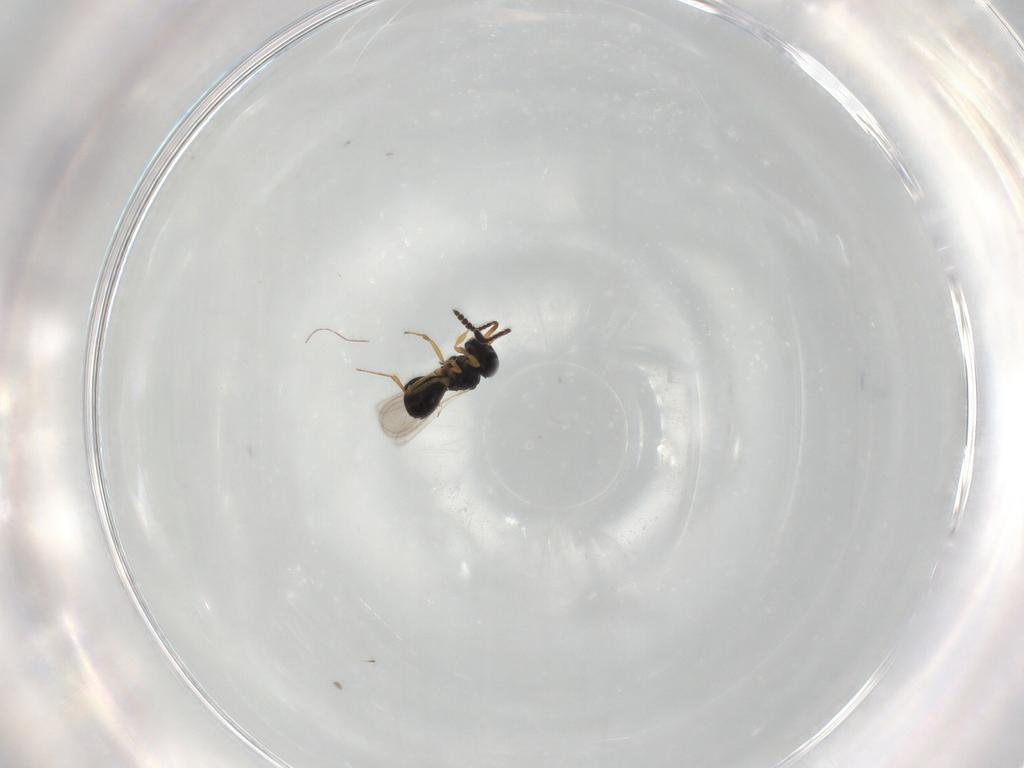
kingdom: Animalia
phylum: Arthropoda
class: Insecta
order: Hymenoptera
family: Scelionidae
